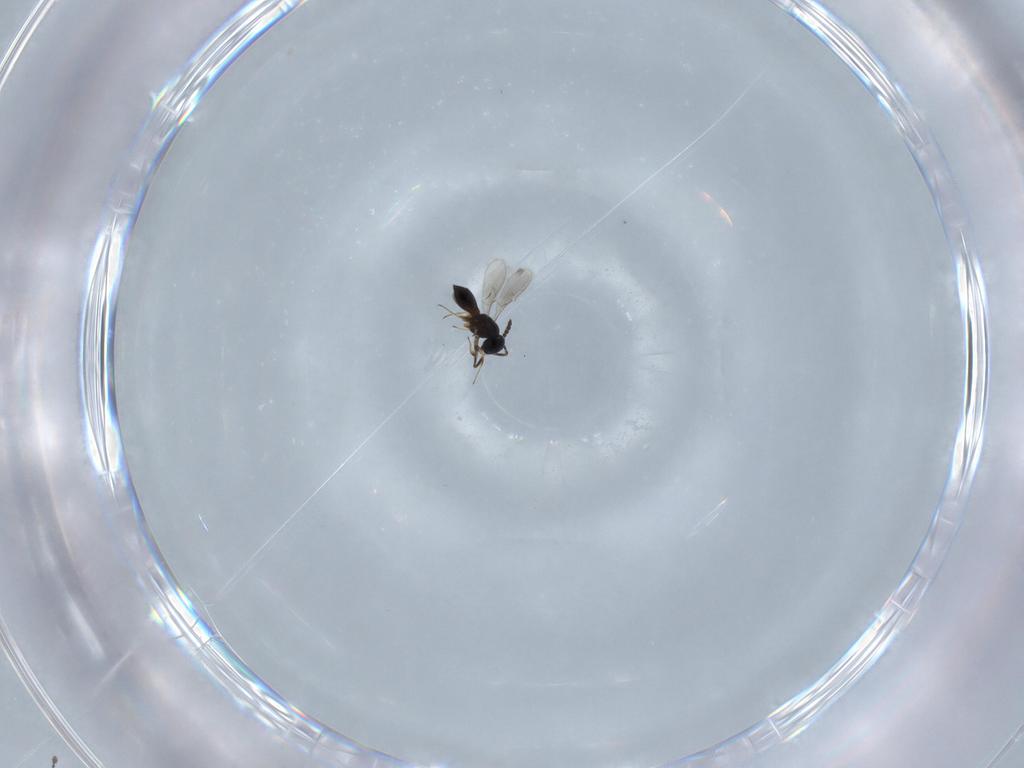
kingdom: Animalia
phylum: Arthropoda
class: Insecta
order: Hymenoptera
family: Scelionidae
